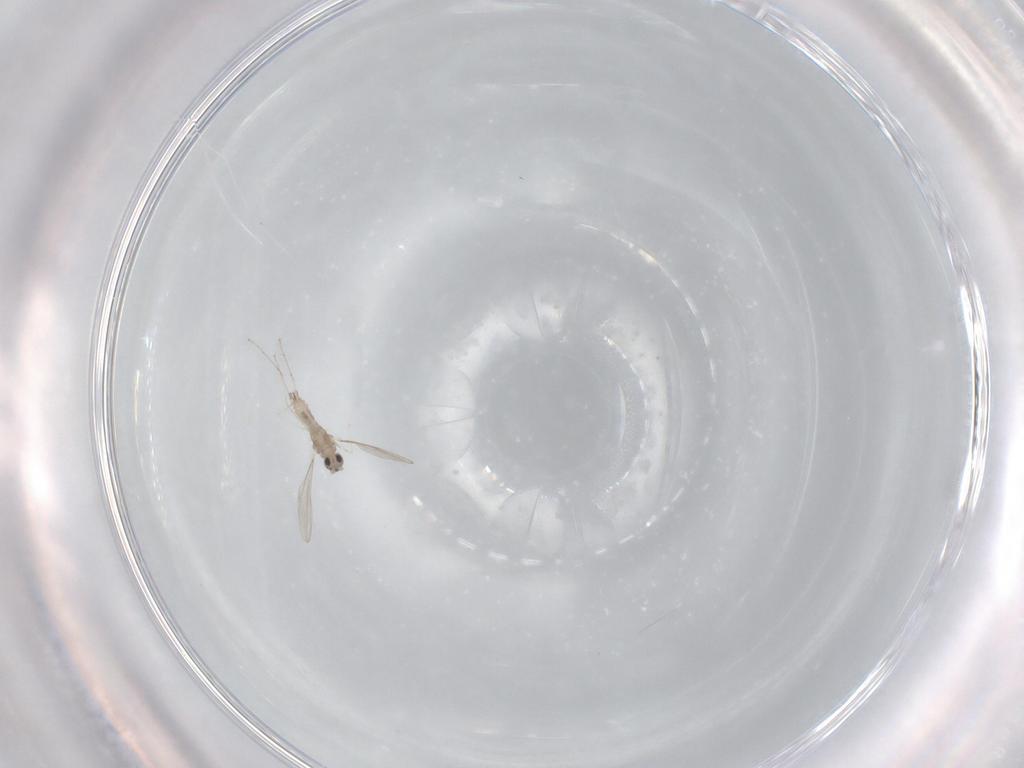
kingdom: Animalia
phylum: Arthropoda
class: Insecta
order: Diptera
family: Cecidomyiidae
